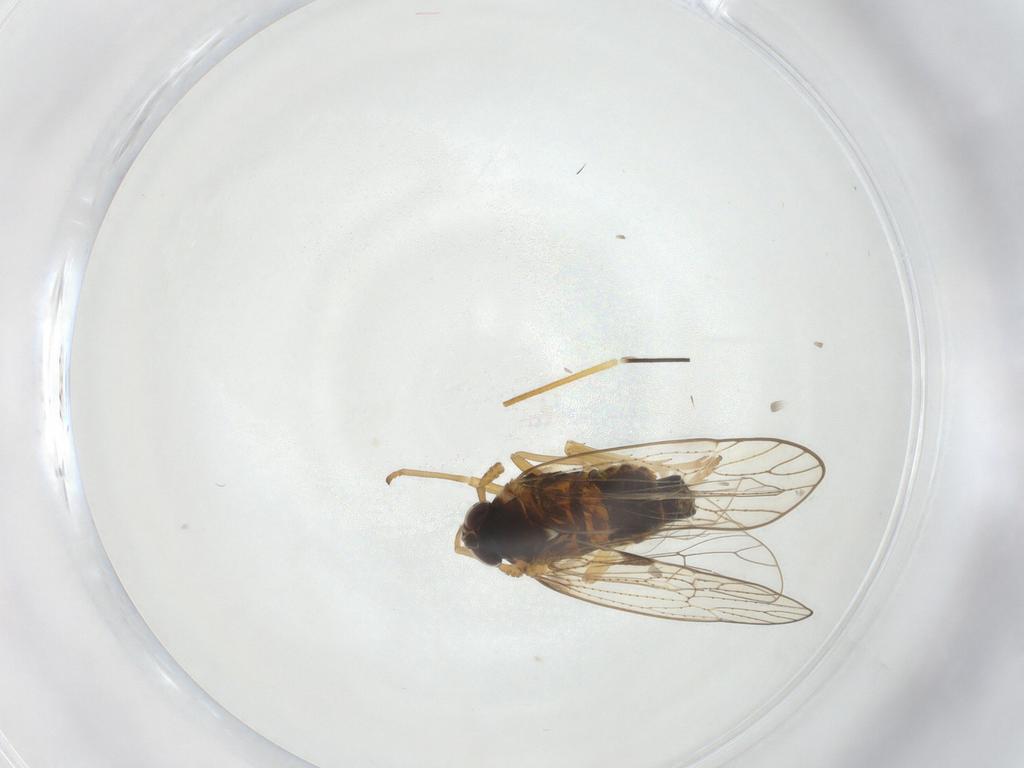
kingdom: Animalia
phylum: Arthropoda
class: Insecta
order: Hemiptera
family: Miridae
